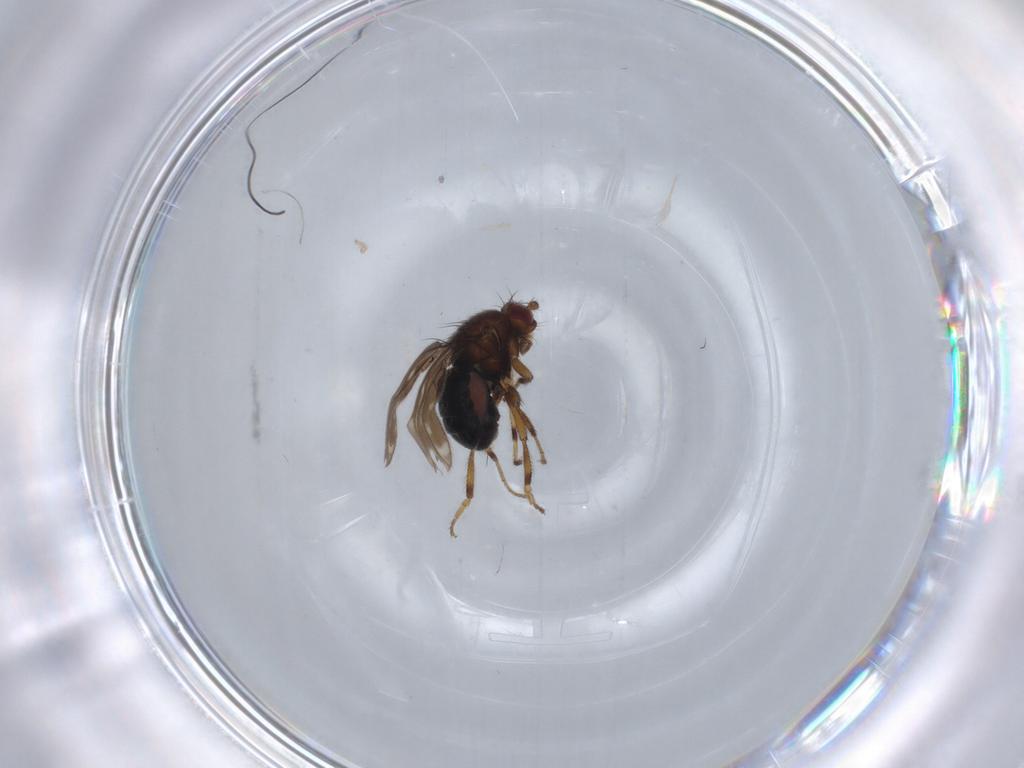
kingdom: Animalia
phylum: Arthropoda
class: Insecta
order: Diptera
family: Sphaeroceridae
